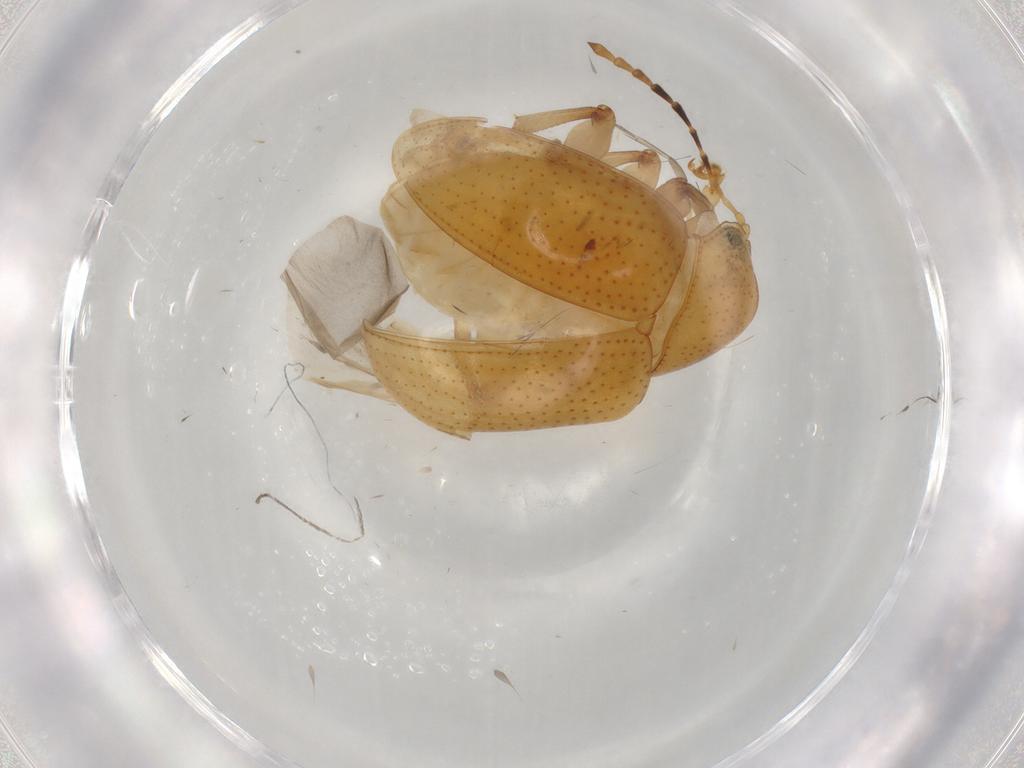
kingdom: Animalia
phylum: Arthropoda
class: Insecta
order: Coleoptera
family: Chrysomelidae
